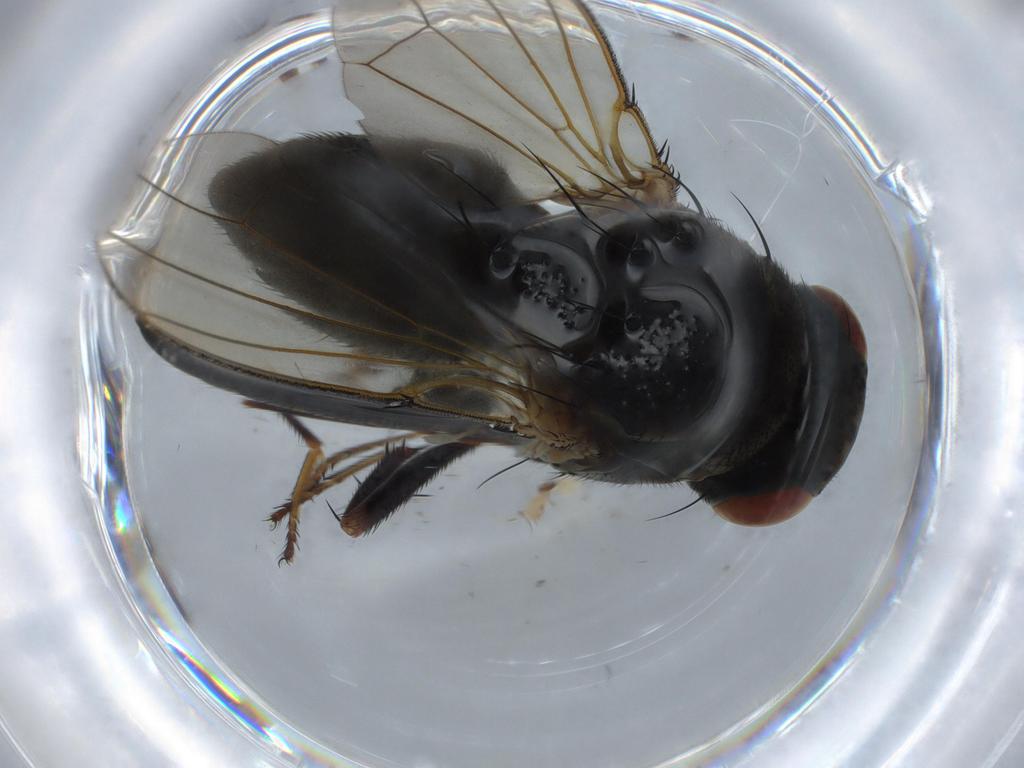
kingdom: Animalia
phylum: Arthropoda
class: Insecta
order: Diptera
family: Ephydridae
